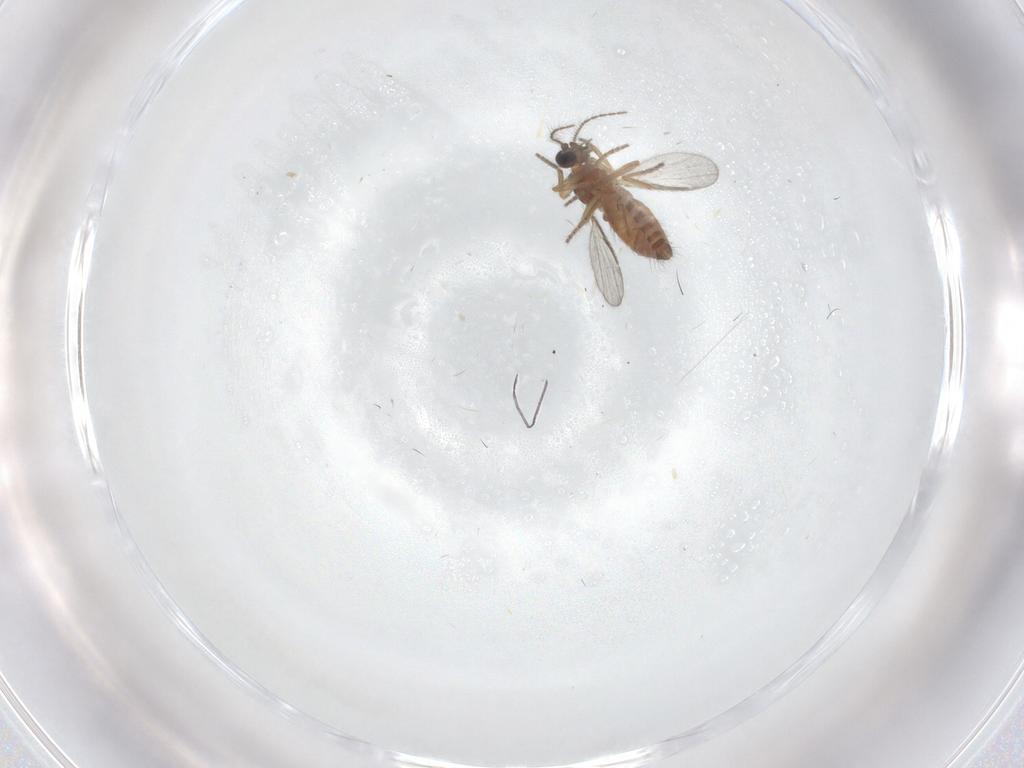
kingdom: Animalia
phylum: Arthropoda
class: Insecta
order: Diptera
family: Ceratopogonidae
